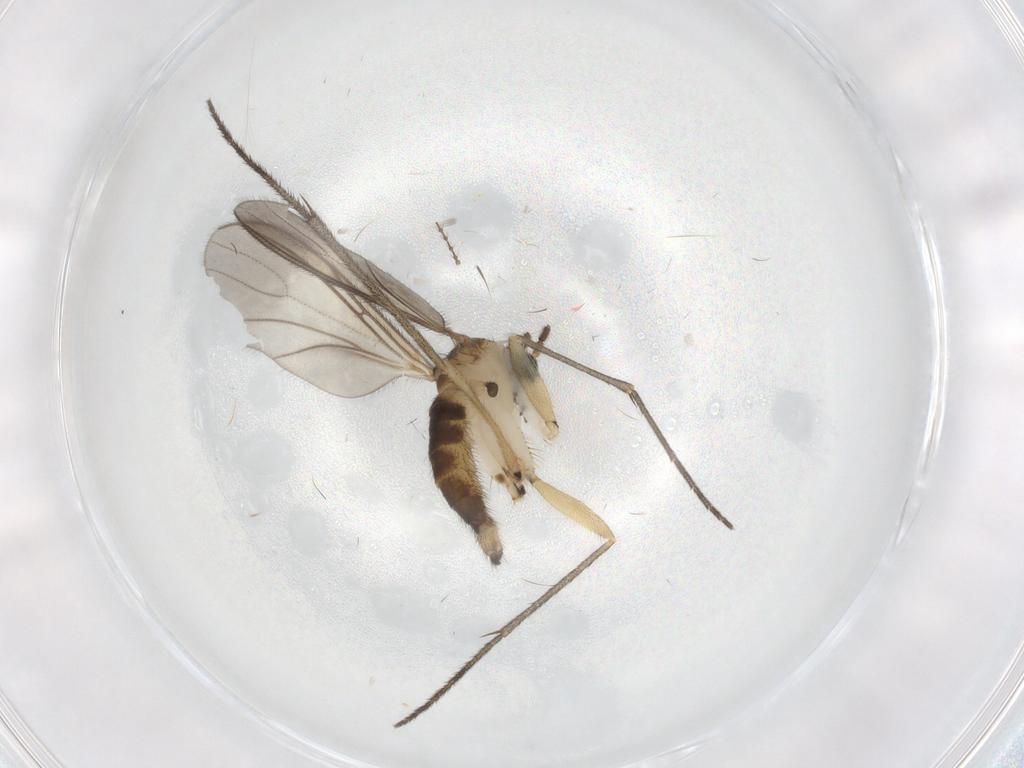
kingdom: Animalia
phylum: Arthropoda
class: Insecta
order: Diptera
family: Sciaridae
